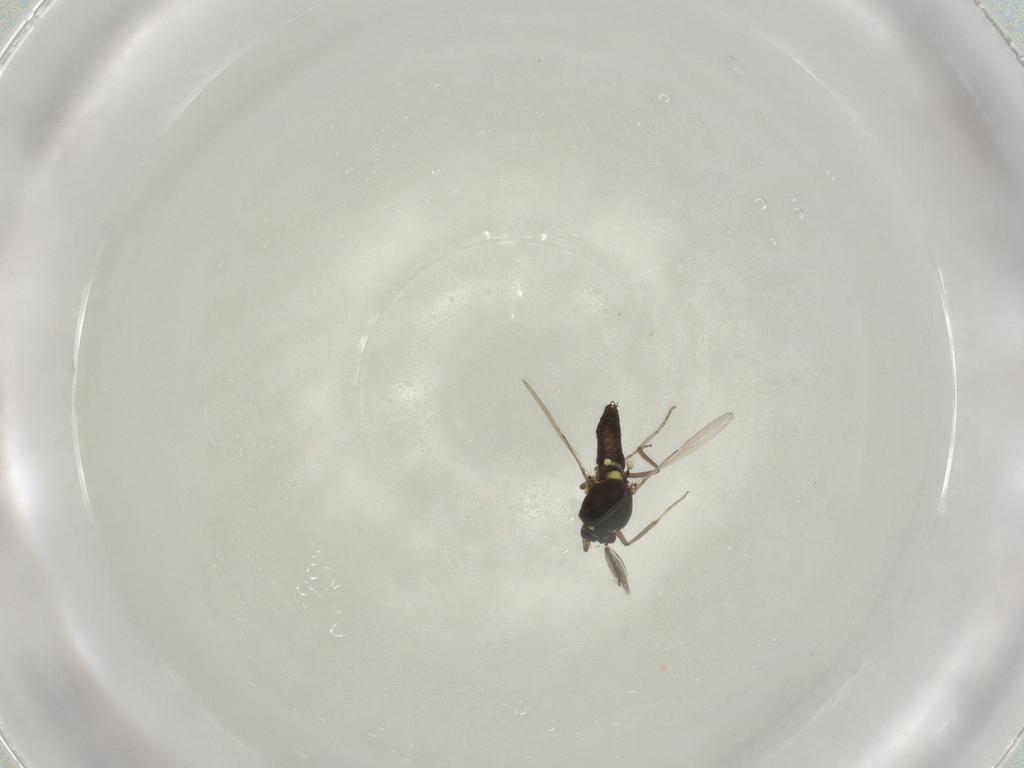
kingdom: Animalia
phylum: Arthropoda
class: Insecta
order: Diptera
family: Ceratopogonidae
